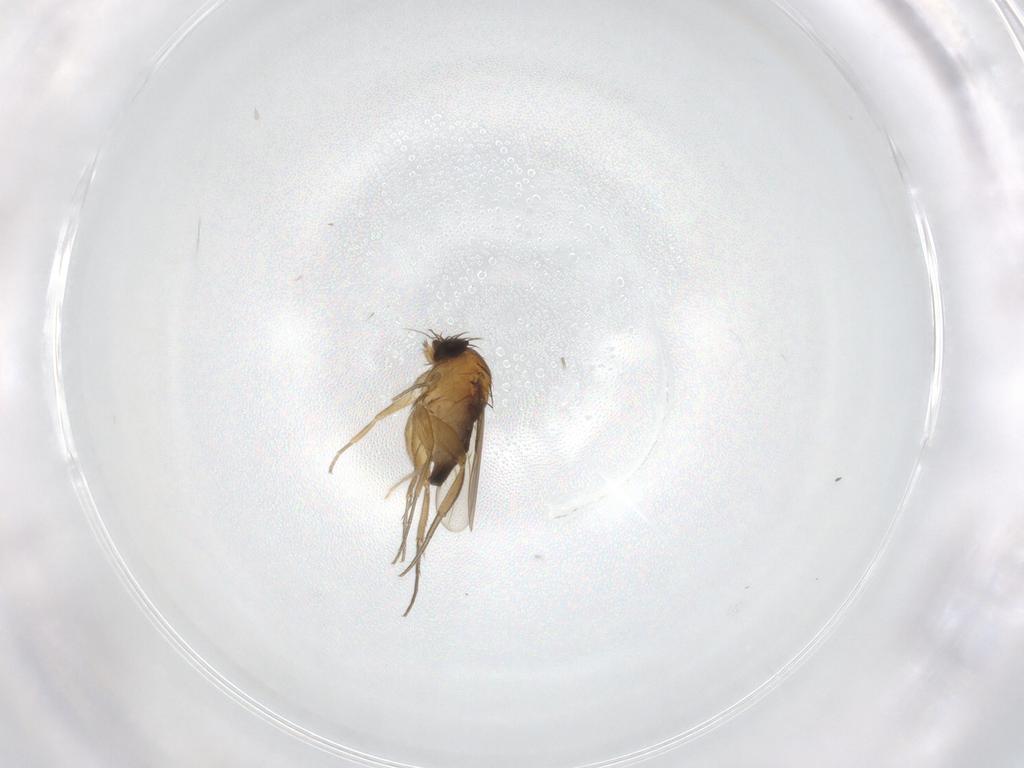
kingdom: Animalia
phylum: Arthropoda
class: Insecta
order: Diptera
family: Phoridae
